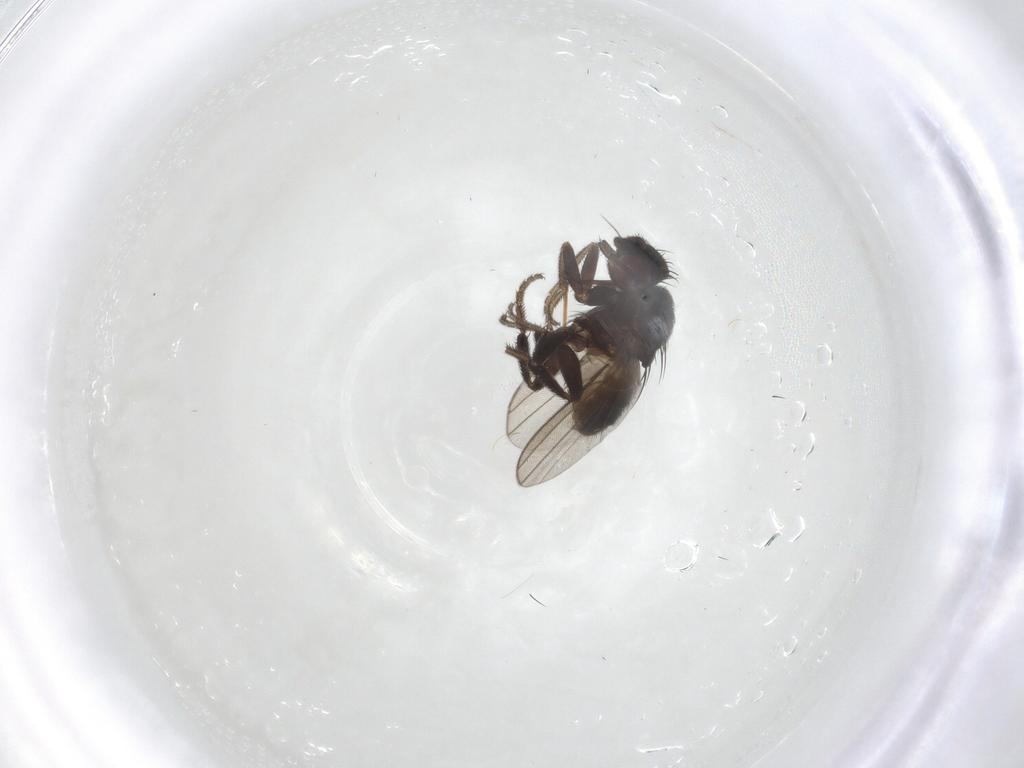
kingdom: Animalia
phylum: Arthropoda
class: Insecta
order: Diptera
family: Milichiidae
